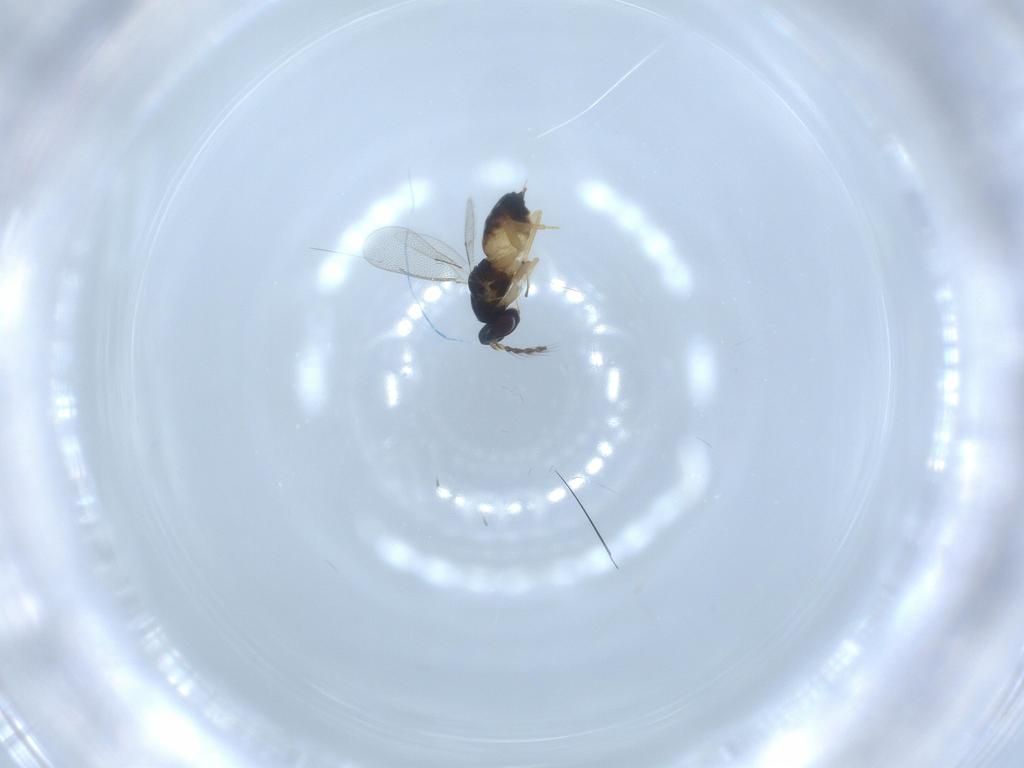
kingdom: Animalia
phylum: Arthropoda
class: Insecta
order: Hymenoptera
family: Eulophidae
